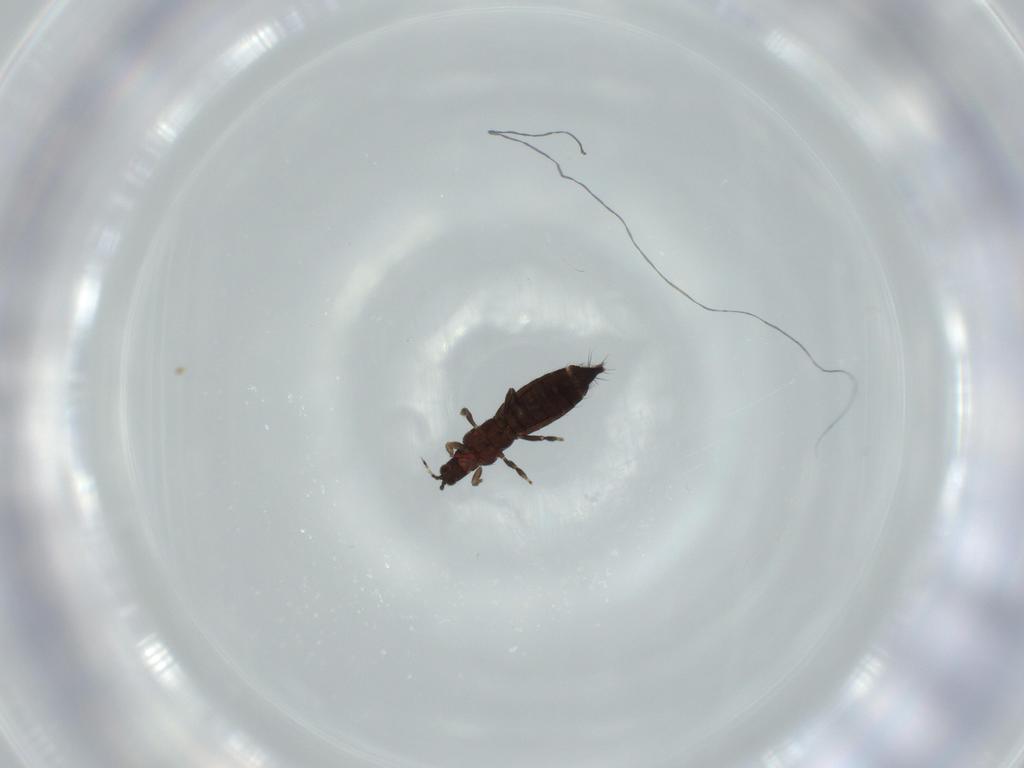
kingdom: Animalia
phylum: Arthropoda
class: Insecta
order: Thysanoptera
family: Thripidae
